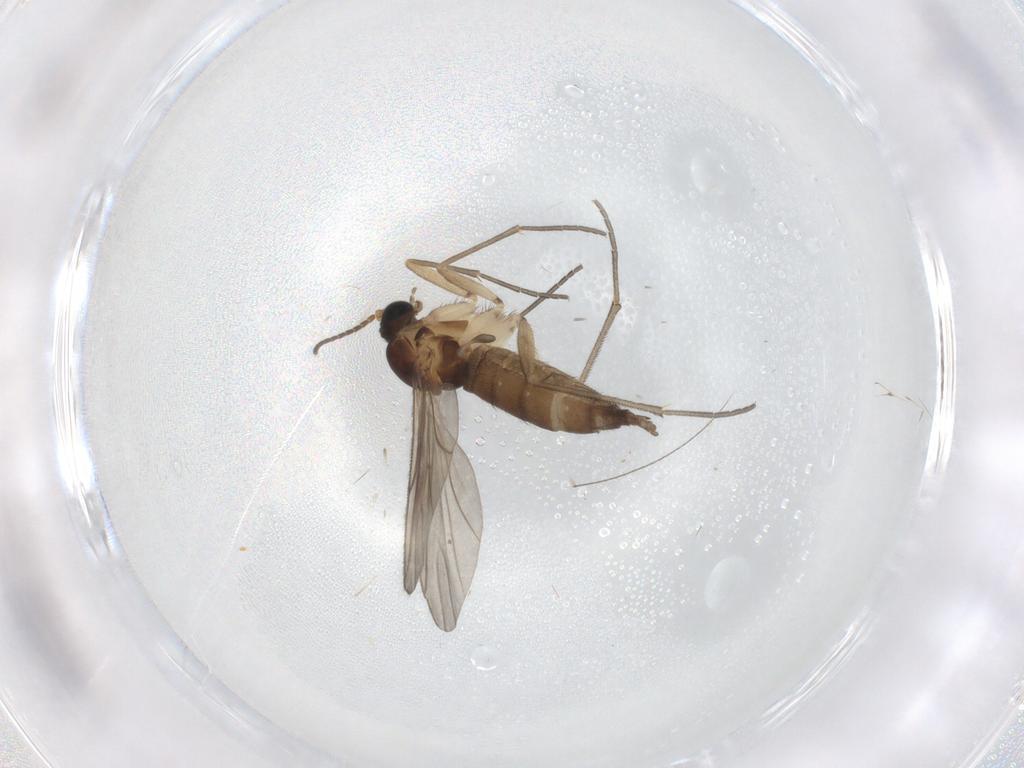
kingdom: Animalia
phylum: Arthropoda
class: Insecta
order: Diptera
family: Sciaridae
